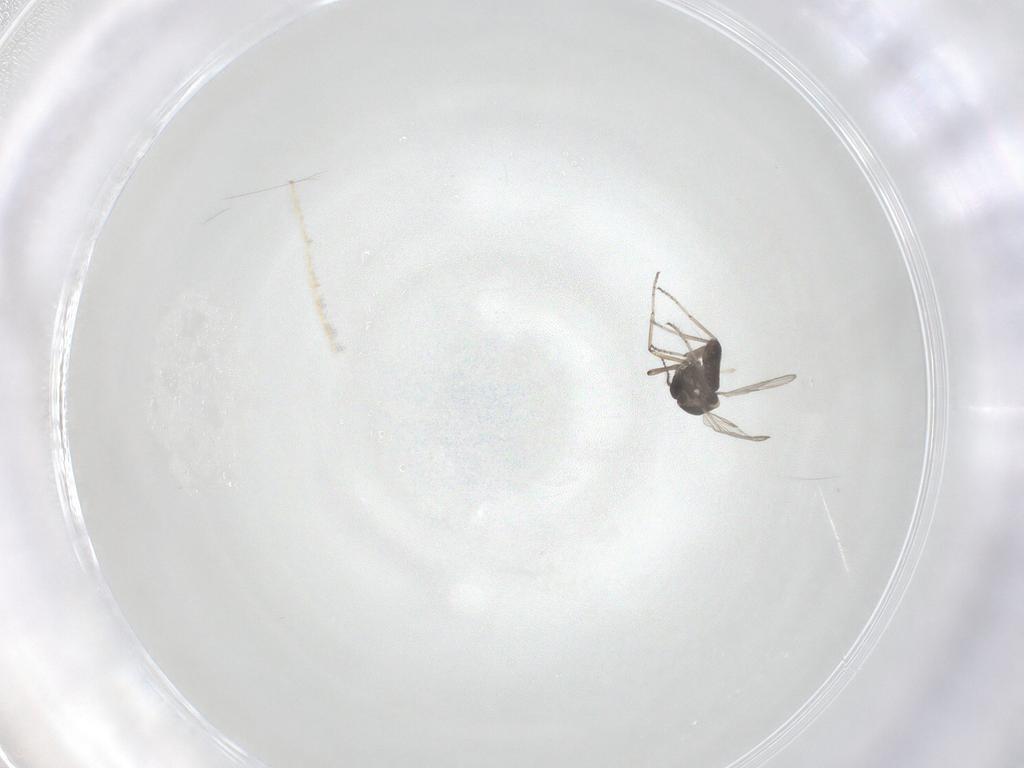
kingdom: Animalia
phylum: Arthropoda
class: Insecta
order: Diptera
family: Ceratopogonidae
